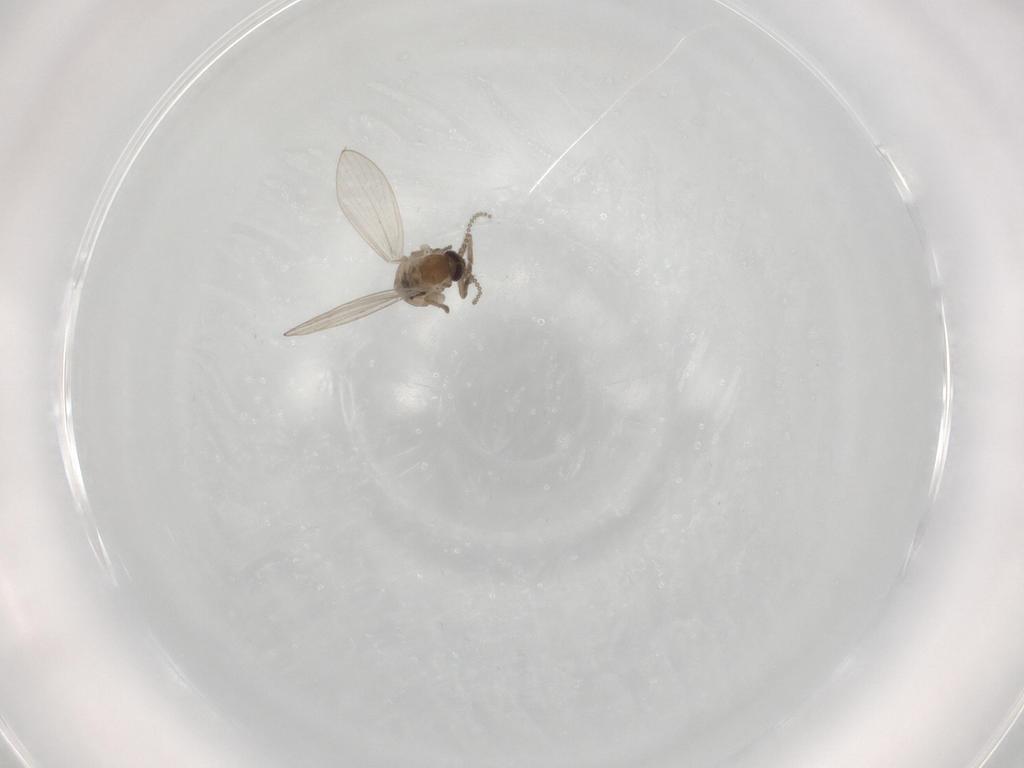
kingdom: Animalia
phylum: Arthropoda
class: Insecta
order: Diptera
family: Psychodidae
